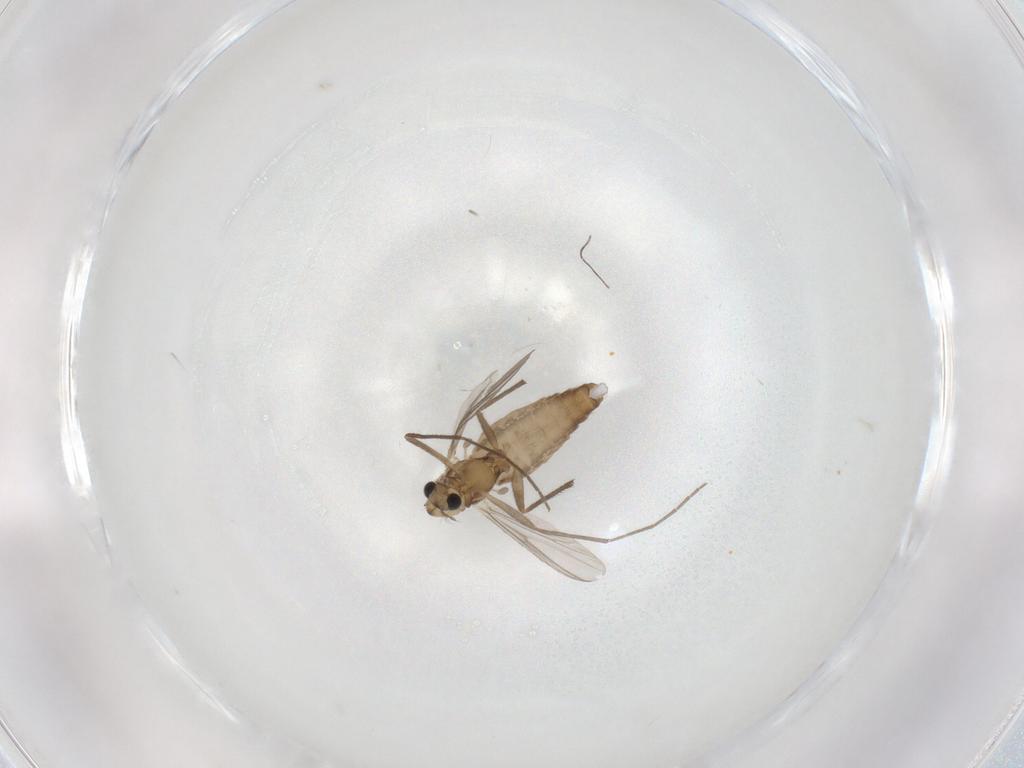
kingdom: Animalia
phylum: Arthropoda
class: Insecta
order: Diptera
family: Chironomidae
